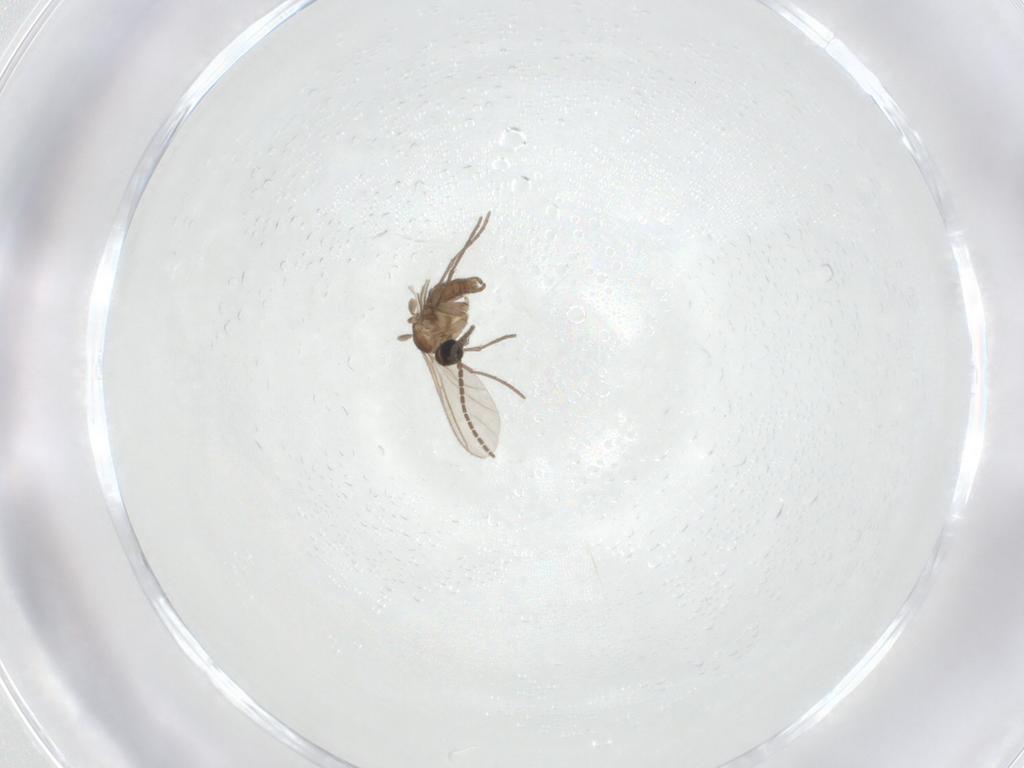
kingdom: Animalia
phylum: Arthropoda
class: Insecta
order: Diptera
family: Sciaridae
